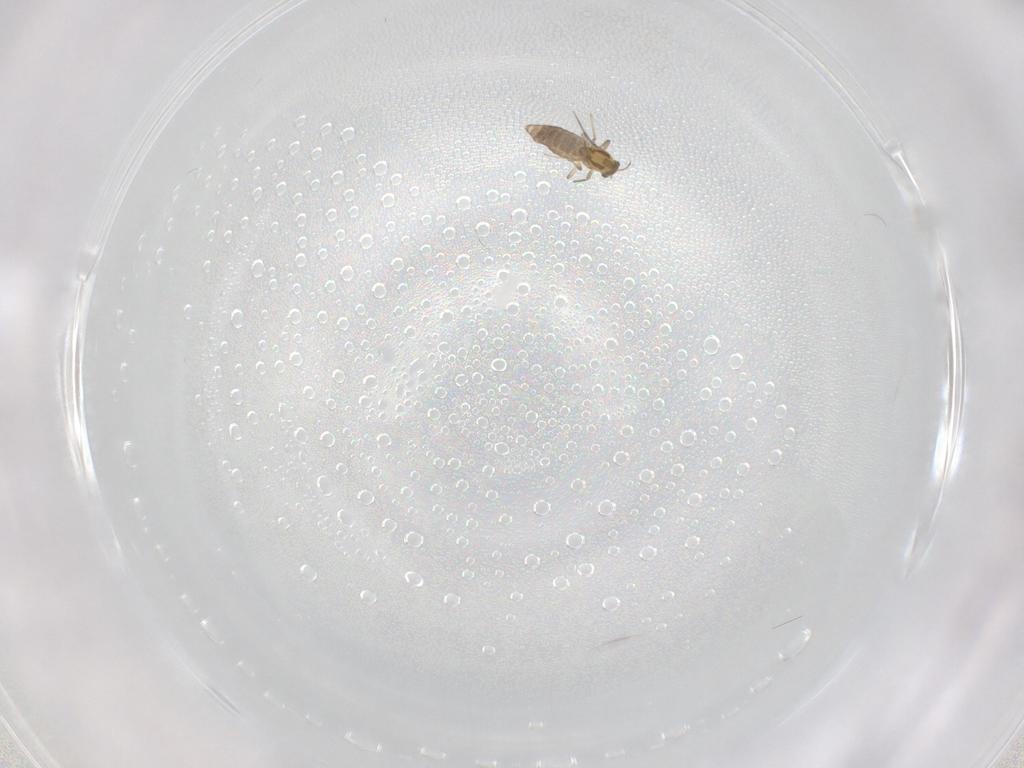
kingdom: Animalia
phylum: Arthropoda
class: Insecta
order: Diptera
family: Chironomidae
